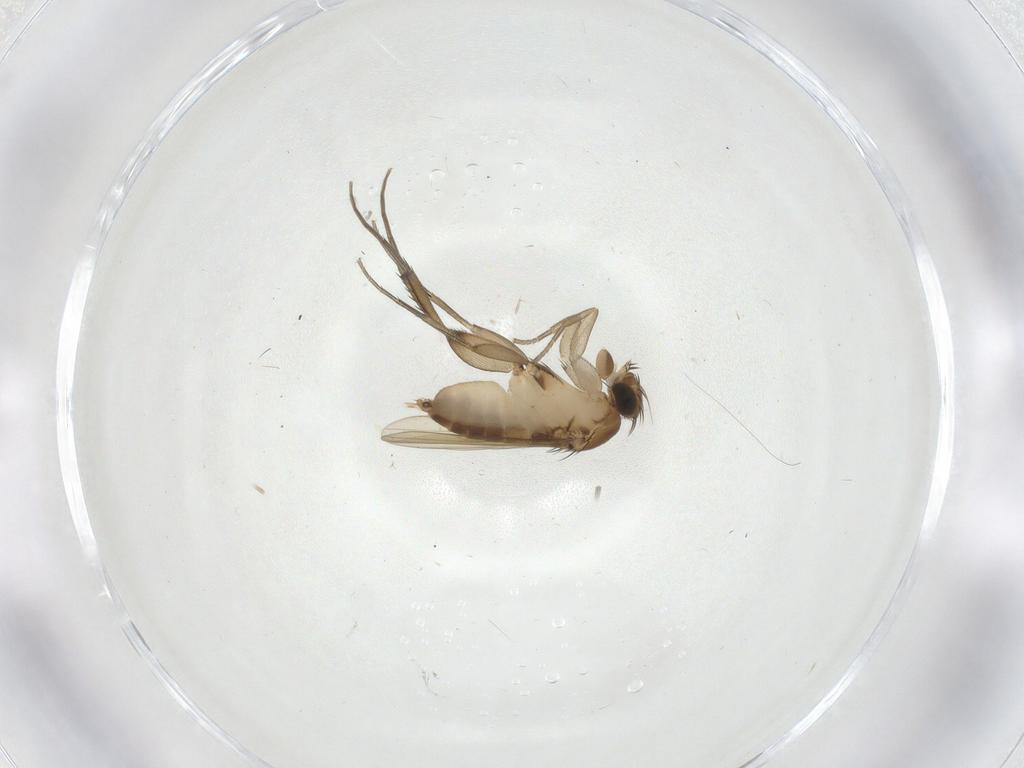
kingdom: Animalia
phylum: Arthropoda
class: Insecta
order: Diptera
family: Phoridae
